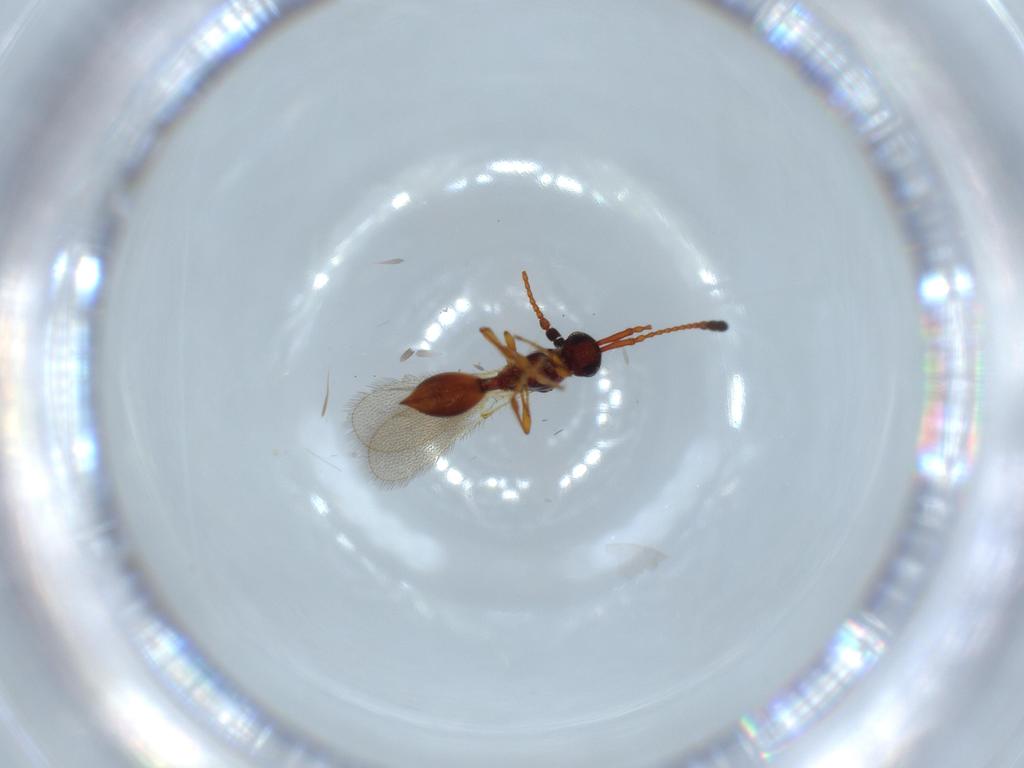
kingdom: Animalia
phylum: Arthropoda
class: Insecta
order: Hymenoptera
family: Diapriidae
